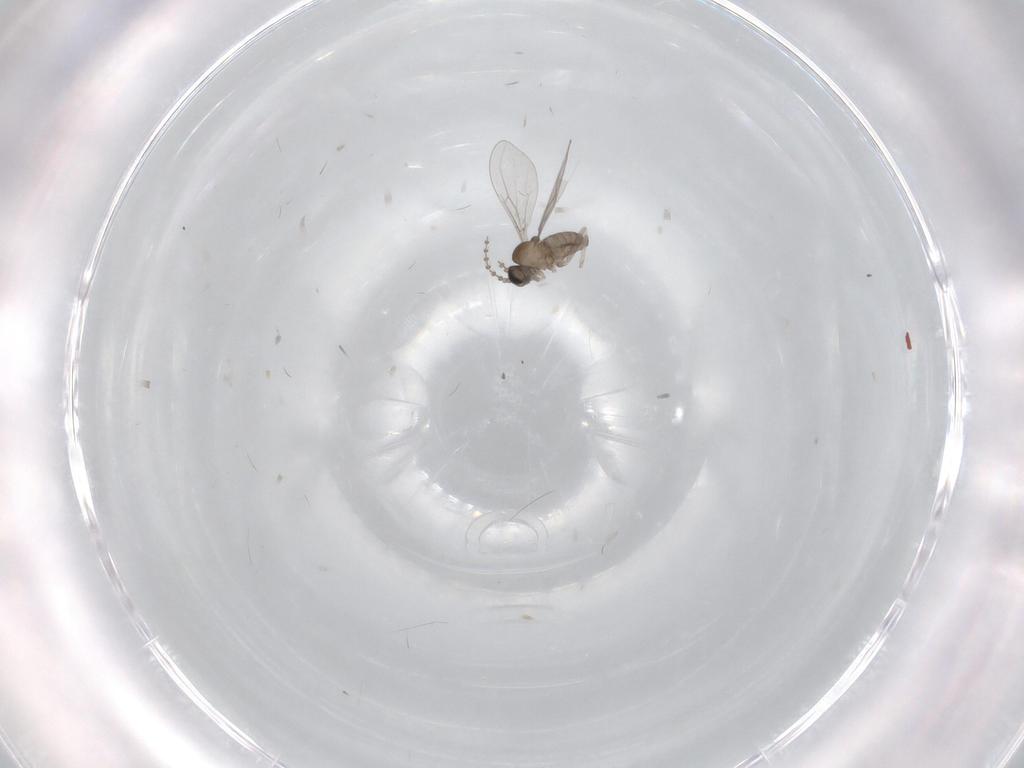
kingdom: Animalia
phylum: Arthropoda
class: Insecta
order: Diptera
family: Cecidomyiidae
